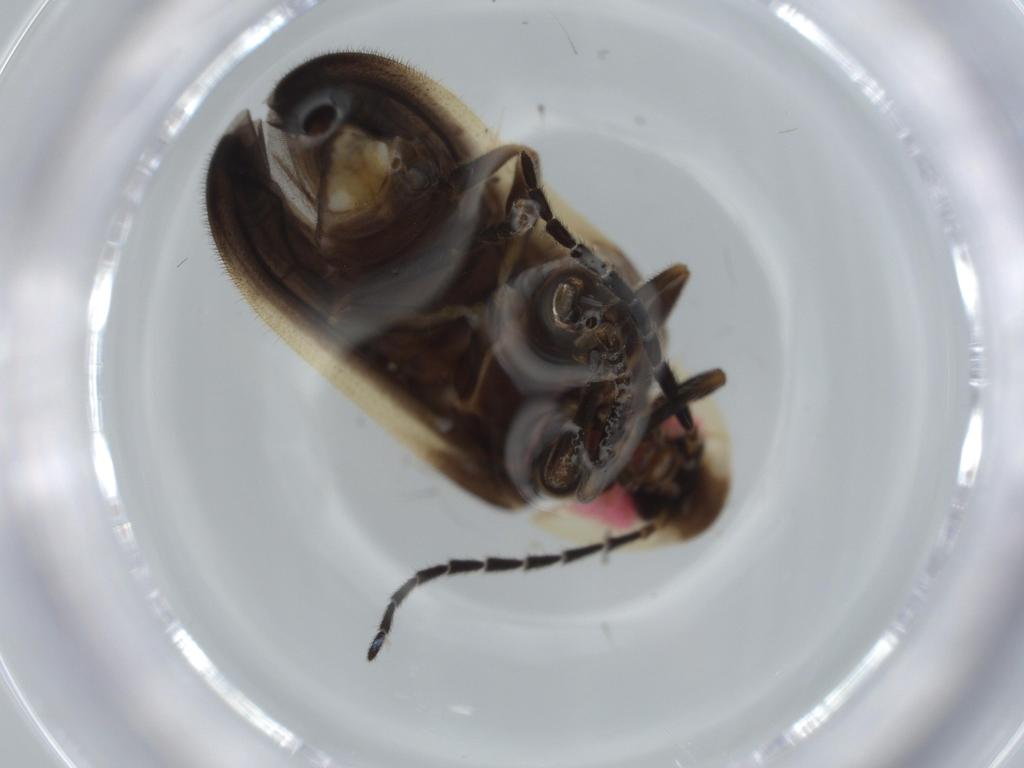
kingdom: Animalia
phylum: Arthropoda
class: Insecta
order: Coleoptera
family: Lampyridae
